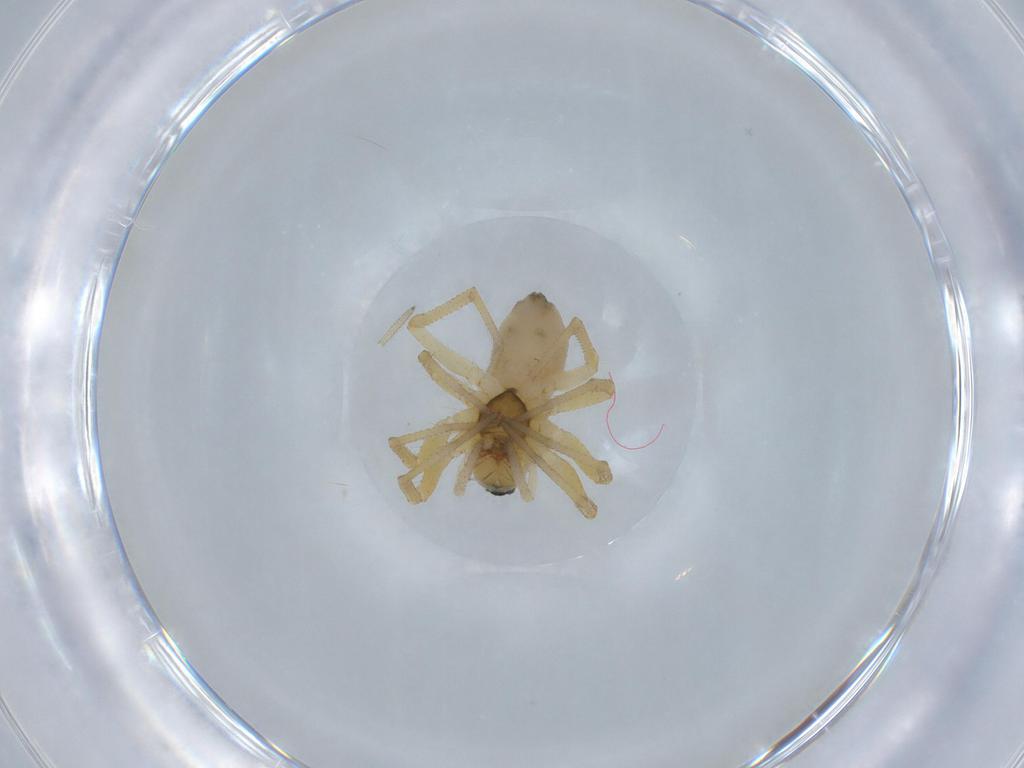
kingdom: Animalia
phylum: Arthropoda
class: Arachnida
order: Araneae
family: Linyphiidae
